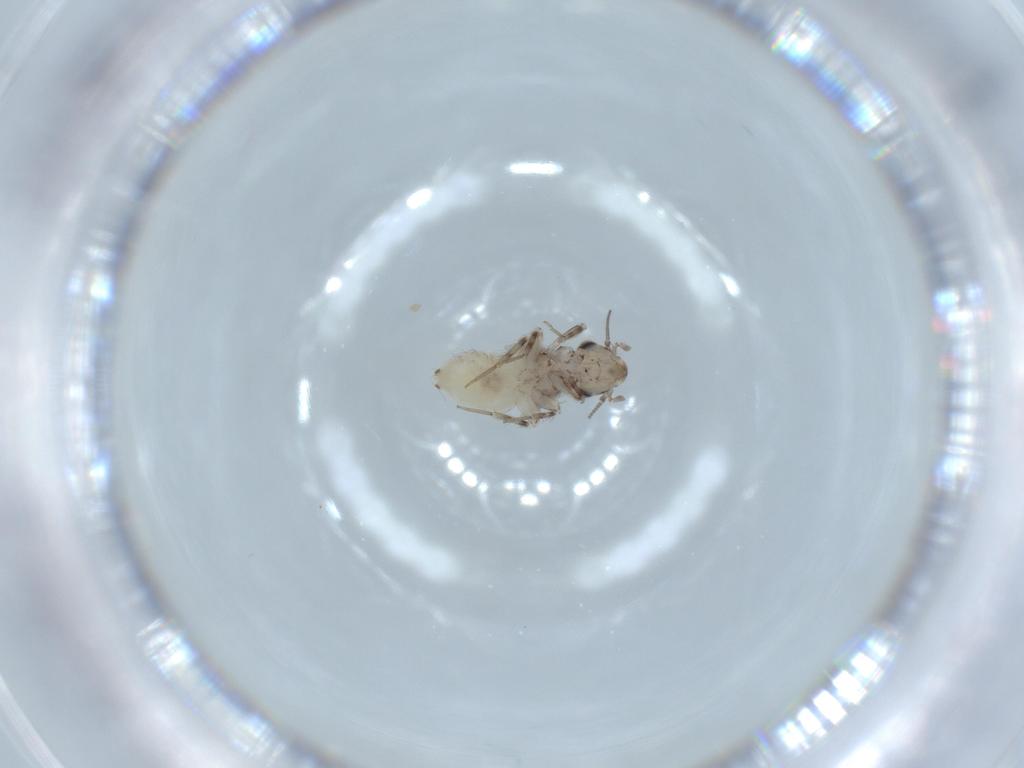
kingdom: Animalia
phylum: Arthropoda
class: Insecta
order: Psocodea
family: Lepidopsocidae
